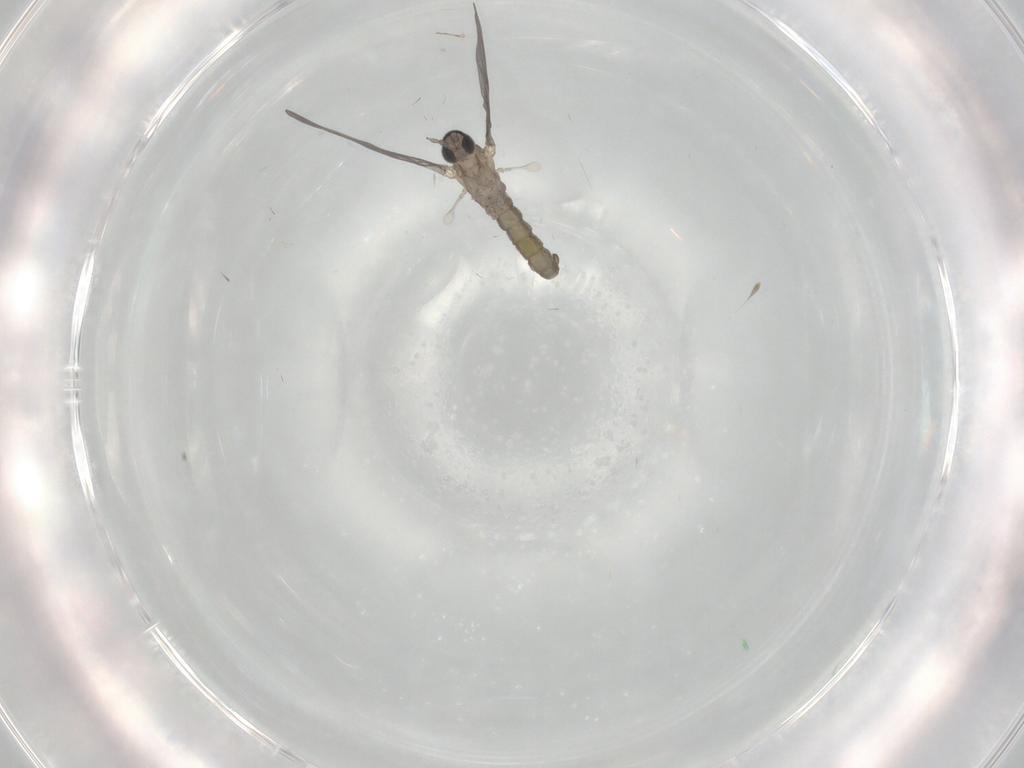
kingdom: Animalia
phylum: Arthropoda
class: Insecta
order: Diptera
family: Cecidomyiidae
